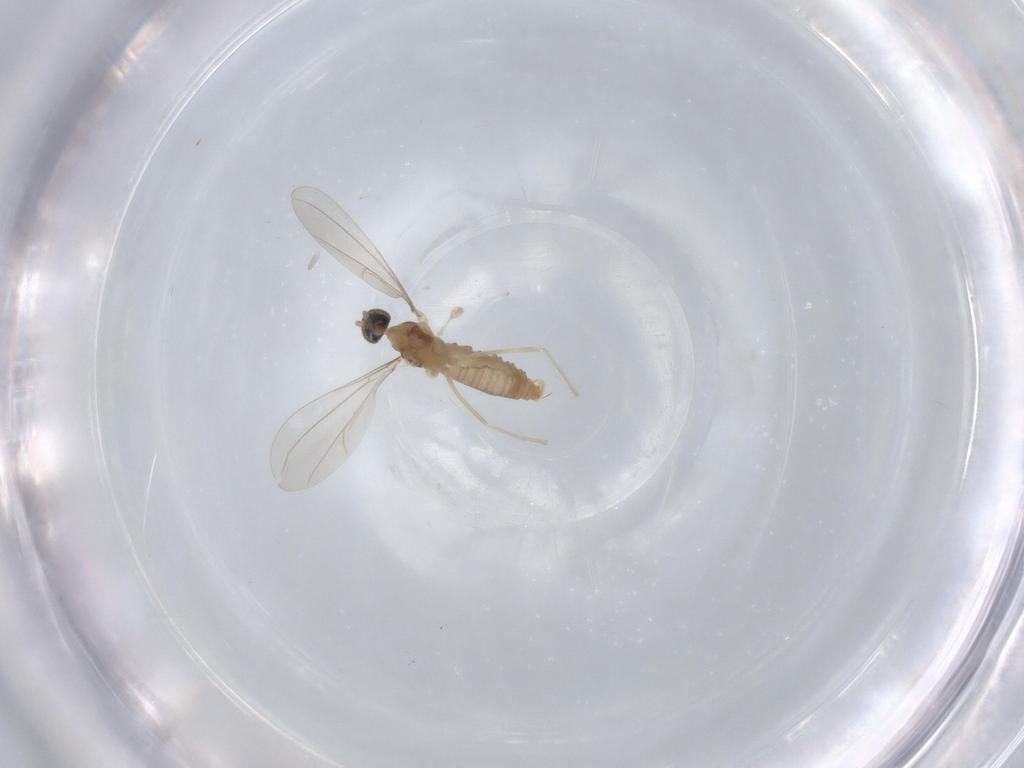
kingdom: Animalia
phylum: Arthropoda
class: Insecta
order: Diptera
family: Cecidomyiidae
